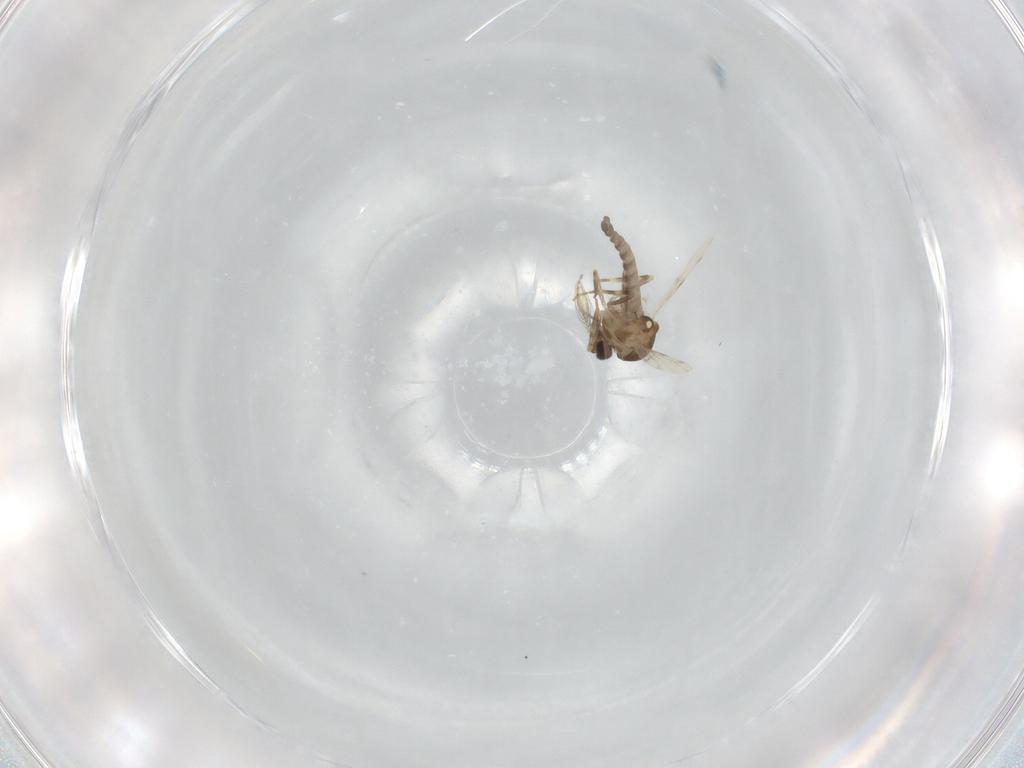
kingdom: Animalia
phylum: Arthropoda
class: Insecta
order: Diptera
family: Ceratopogonidae
